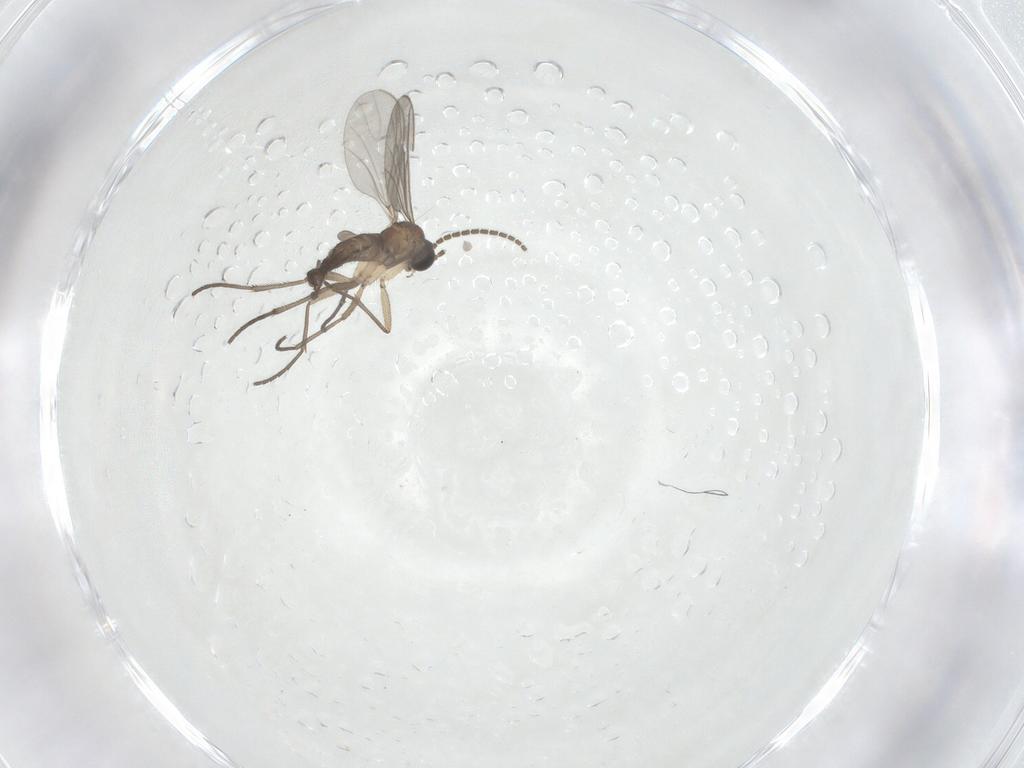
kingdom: Animalia
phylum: Arthropoda
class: Insecta
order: Diptera
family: Sciaridae
